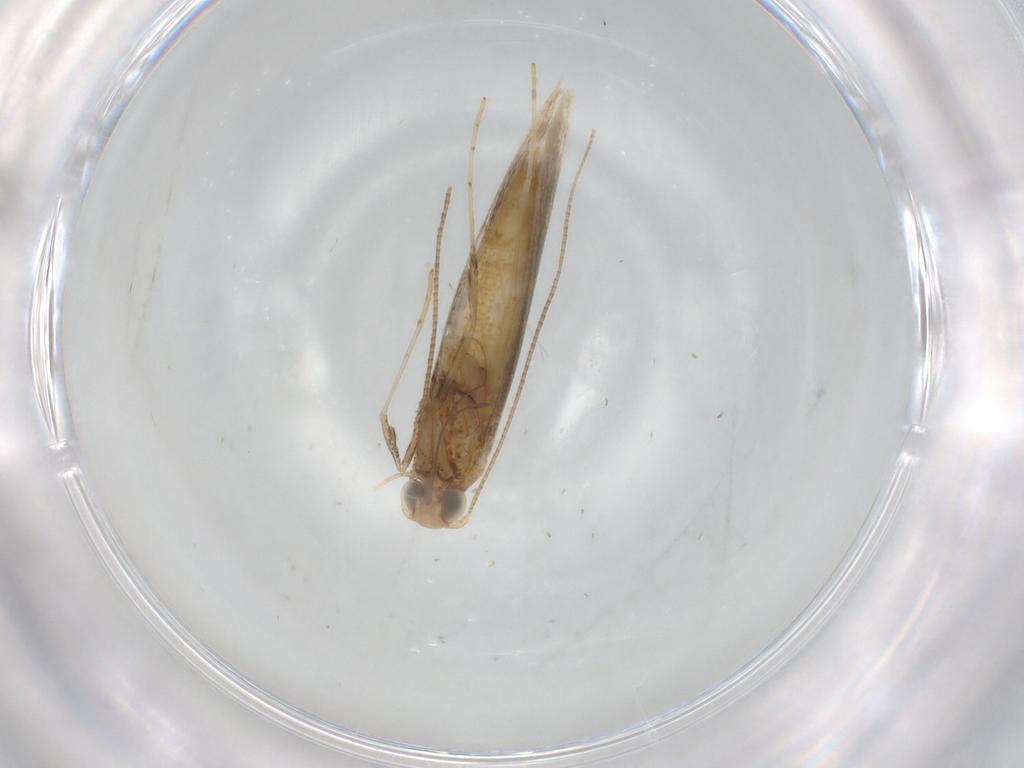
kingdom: Animalia
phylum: Arthropoda
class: Insecta
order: Lepidoptera
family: Gracillariidae
